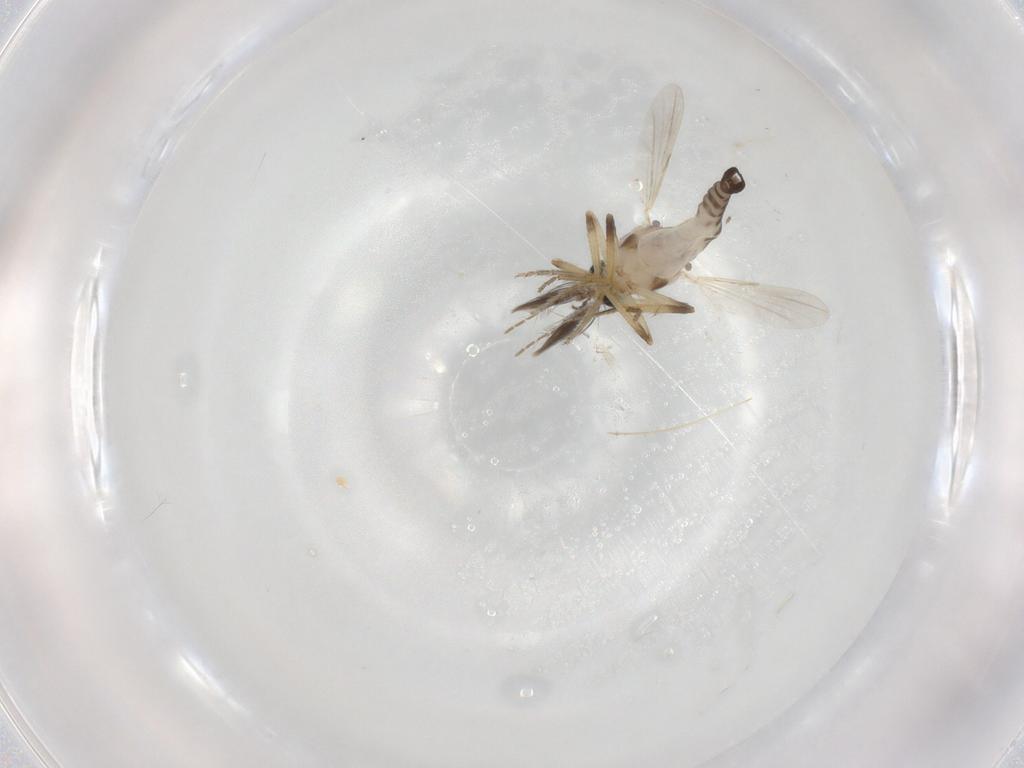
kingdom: Animalia
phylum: Arthropoda
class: Insecta
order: Diptera
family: Ceratopogonidae
